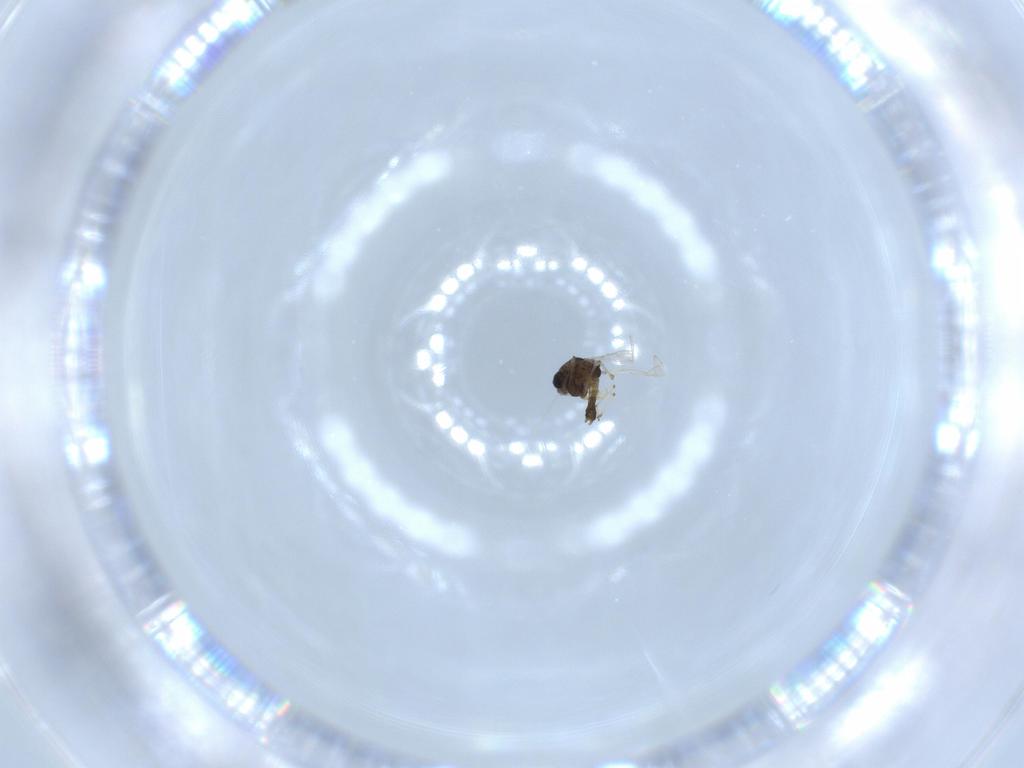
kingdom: Animalia
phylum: Arthropoda
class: Insecta
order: Diptera
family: Chironomidae
